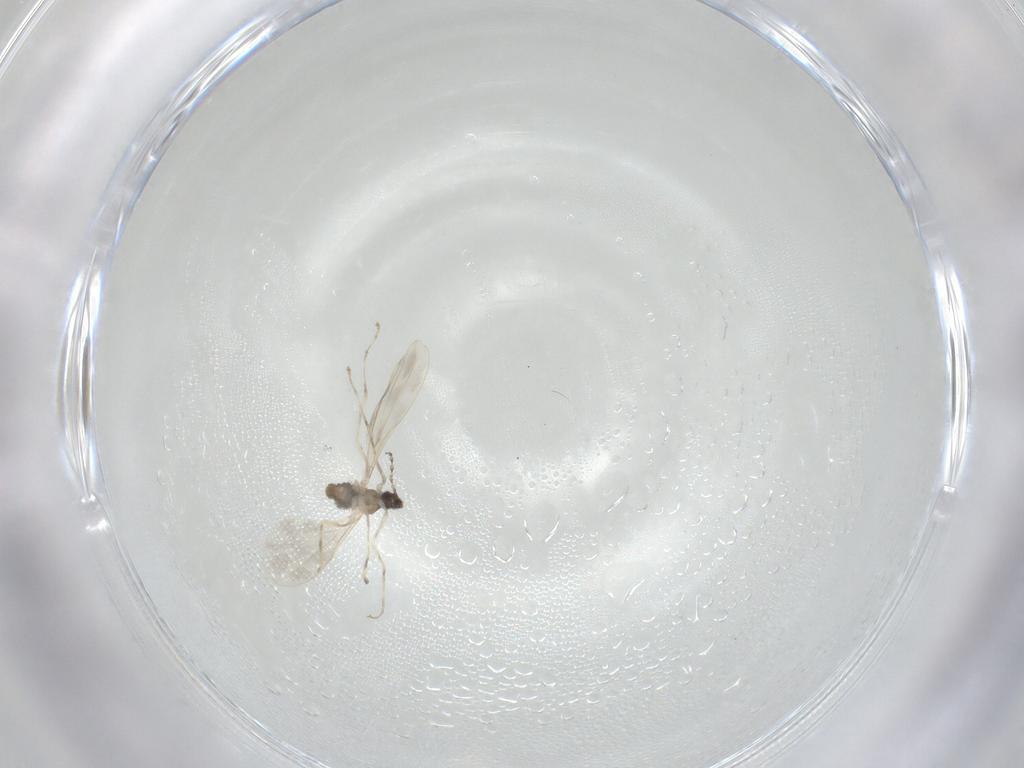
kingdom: Animalia
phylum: Arthropoda
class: Insecta
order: Diptera
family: Cecidomyiidae
